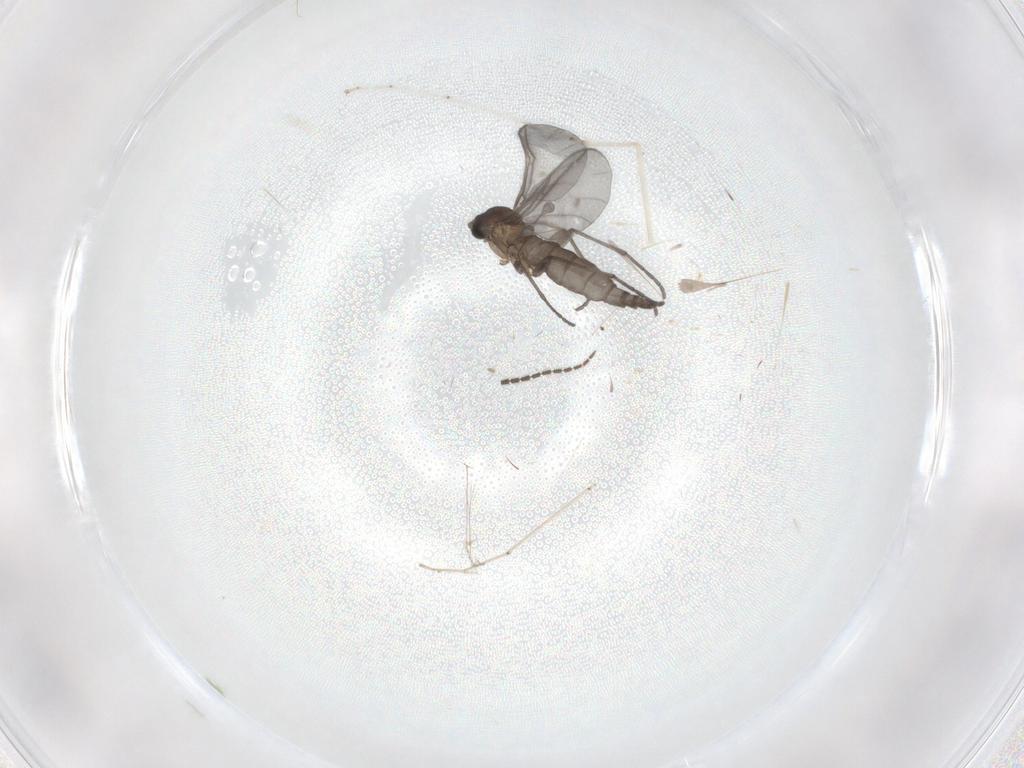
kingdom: Animalia
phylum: Arthropoda
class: Insecta
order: Diptera
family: Sciaridae
